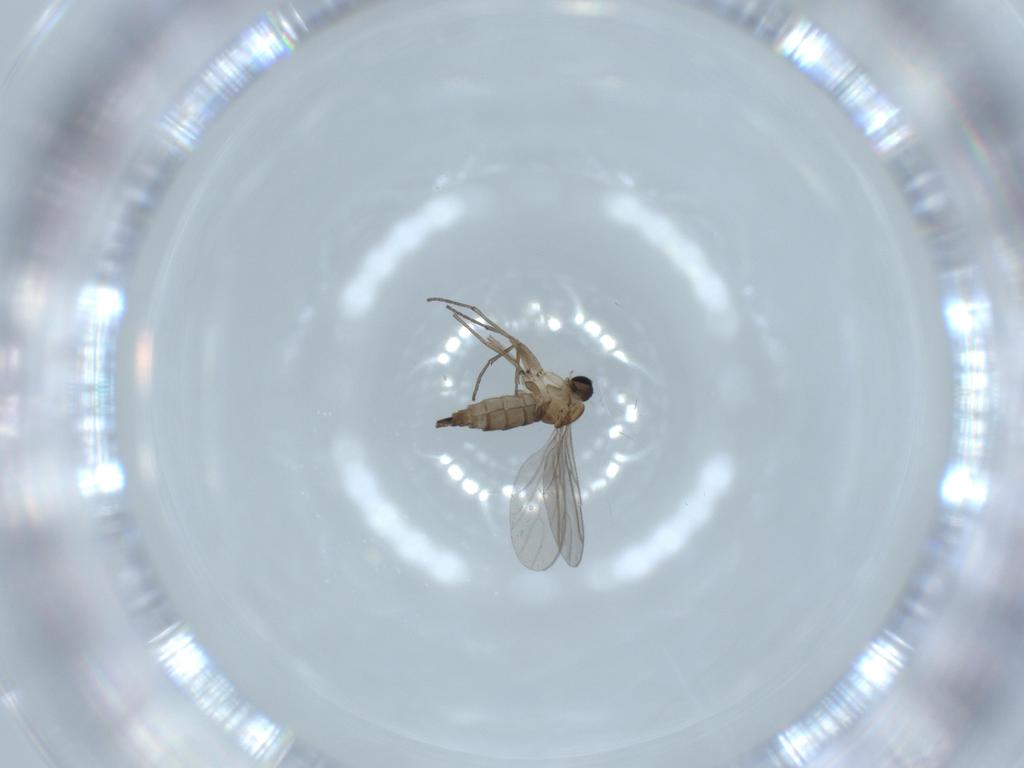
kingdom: Animalia
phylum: Arthropoda
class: Insecta
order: Diptera
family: Sciaridae
